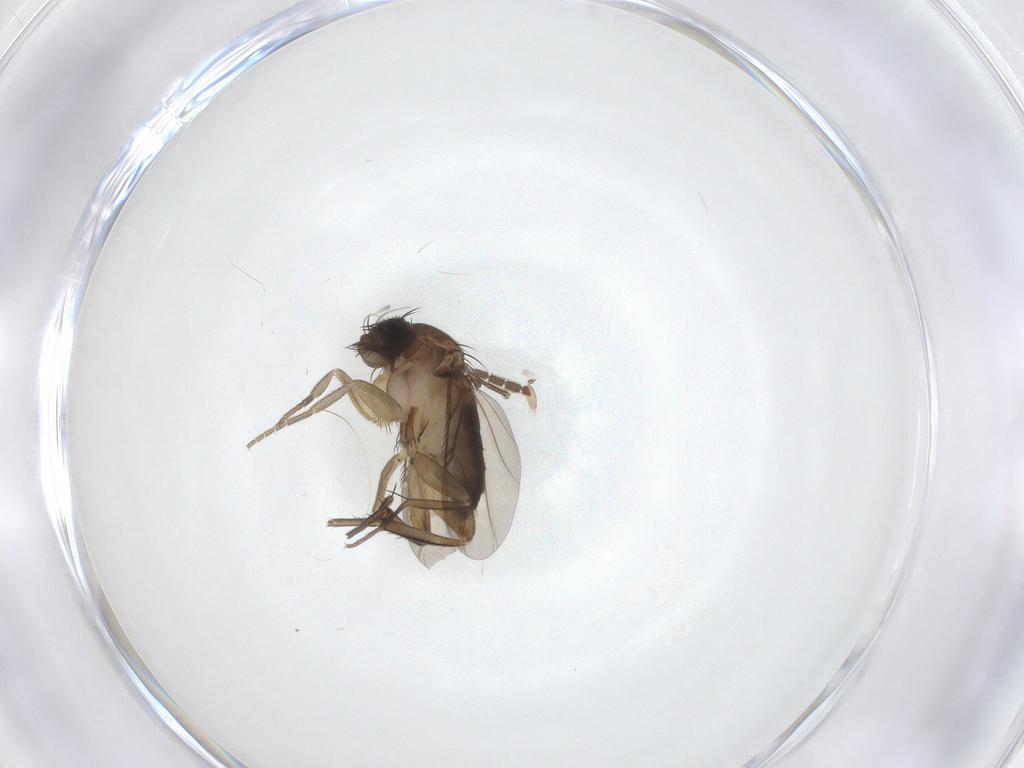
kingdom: Animalia
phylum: Arthropoda
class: Insecta
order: Diptera
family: Phoridae
